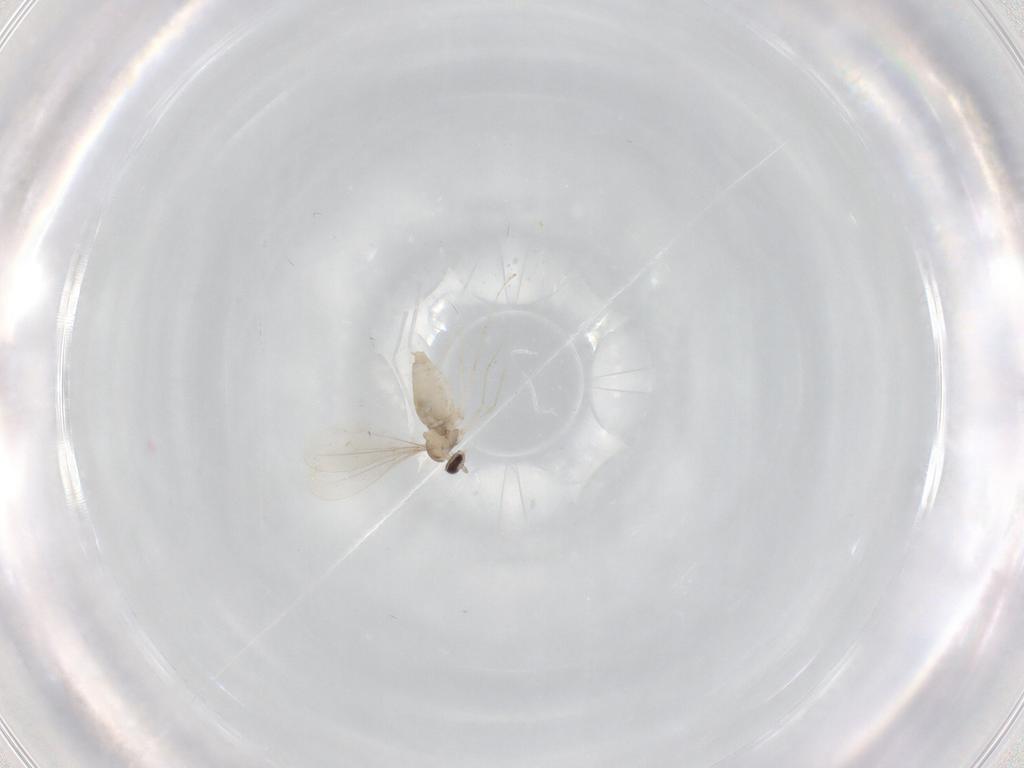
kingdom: Animalia
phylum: Arthropoda
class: Insecta
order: Diptera
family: Cecidomyiidae
